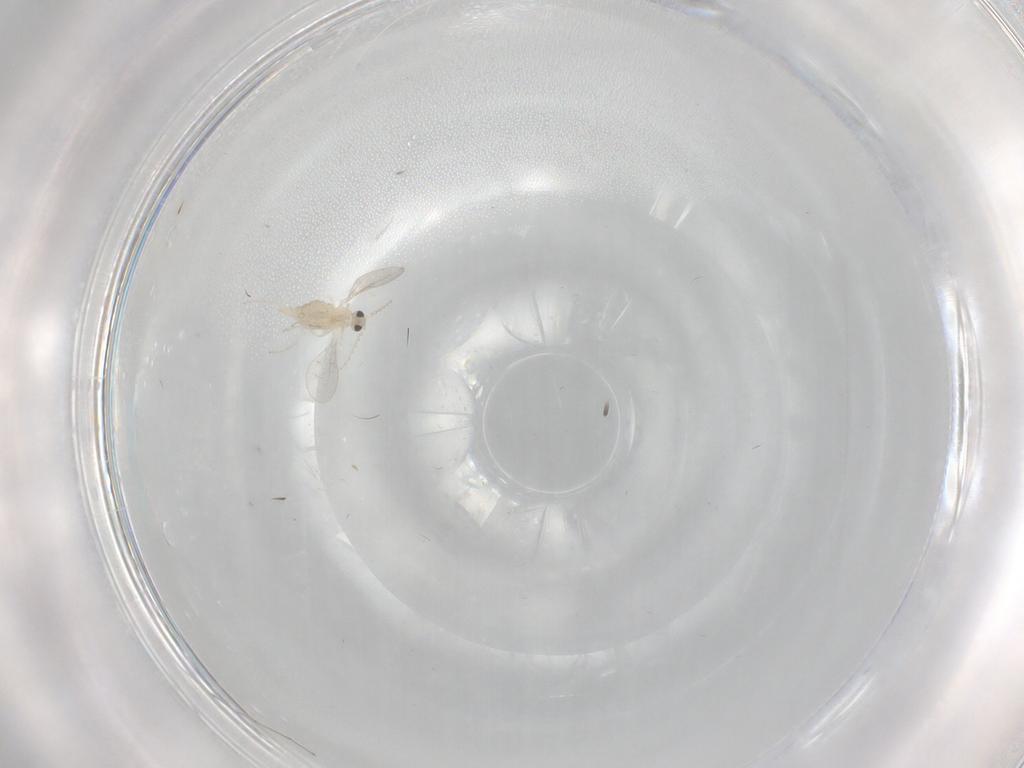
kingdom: Animalia
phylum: Arthropoda
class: Insecta
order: Diptera
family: Cecidomyiidae
